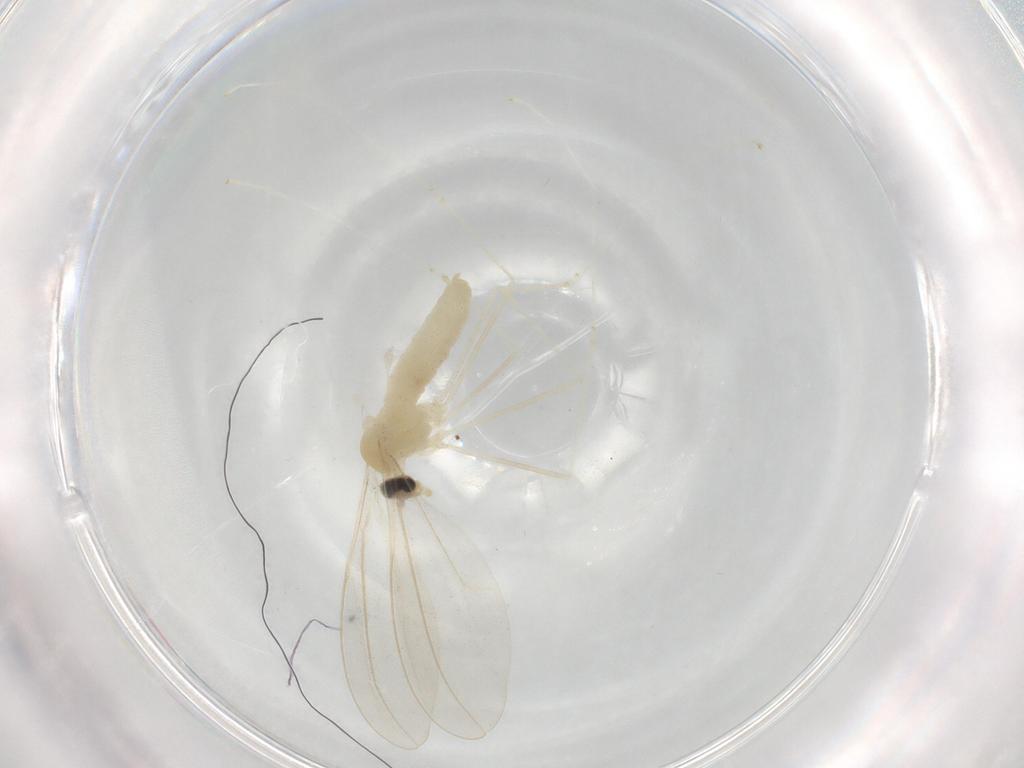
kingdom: Animalia
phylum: Arthropoda
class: Insecta
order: Diptera
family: Cecidomyiidae
